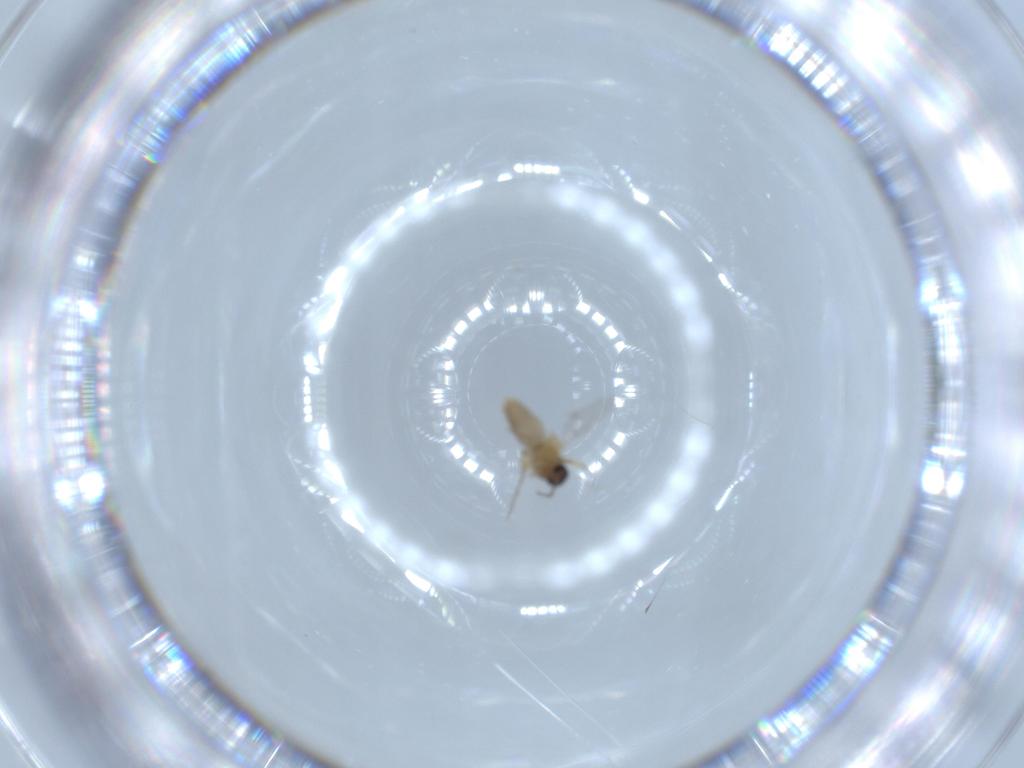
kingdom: Animalia
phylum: Arthropoda
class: Insecta
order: Diptera
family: Ceratopogonidae
